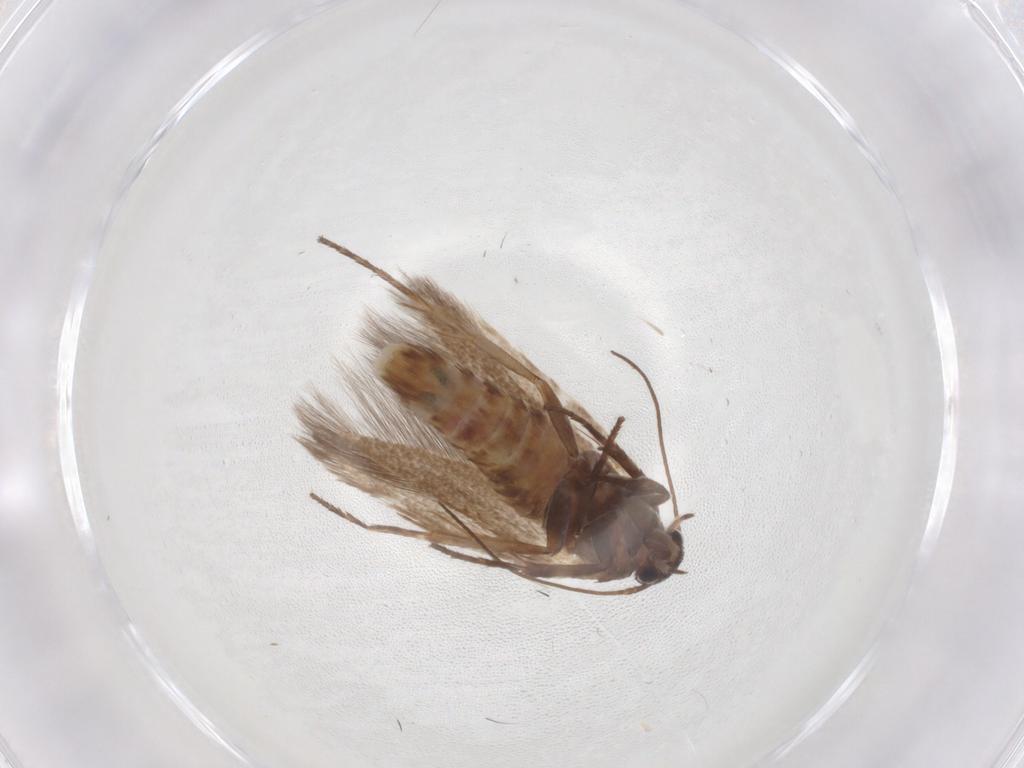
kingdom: Animalia
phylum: Arthropoda
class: Insecta
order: Lepidoptera
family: Scythrididae
